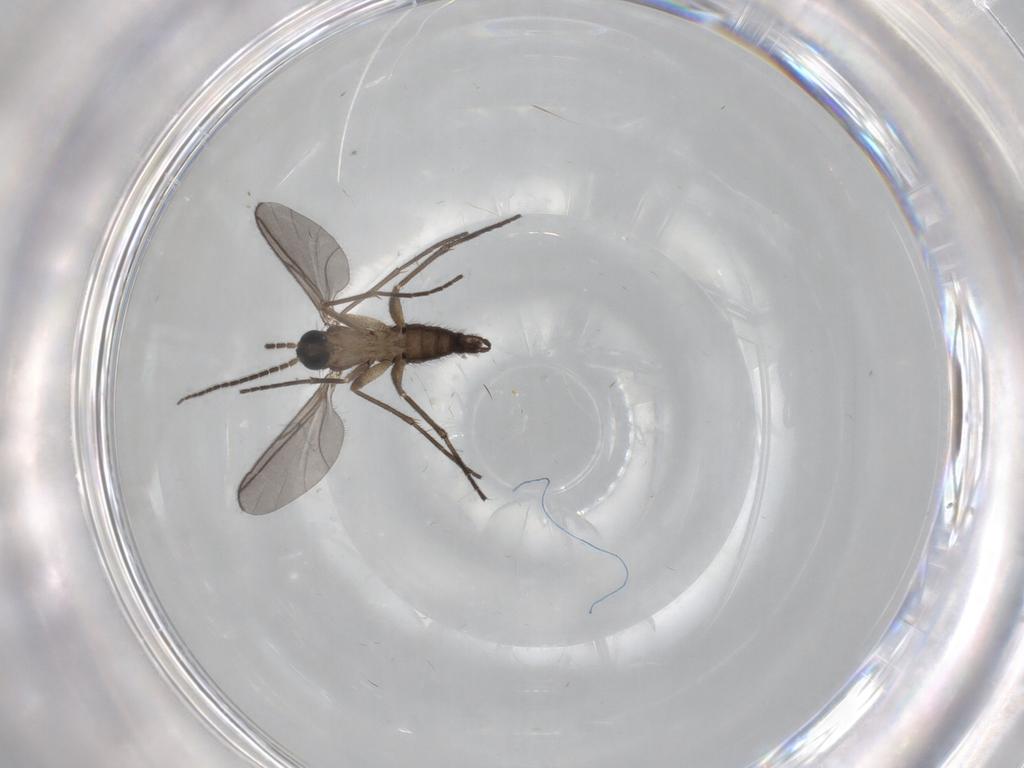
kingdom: Animalia
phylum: Arthropoda
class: Insecta
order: Diptera
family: Sciaridae
